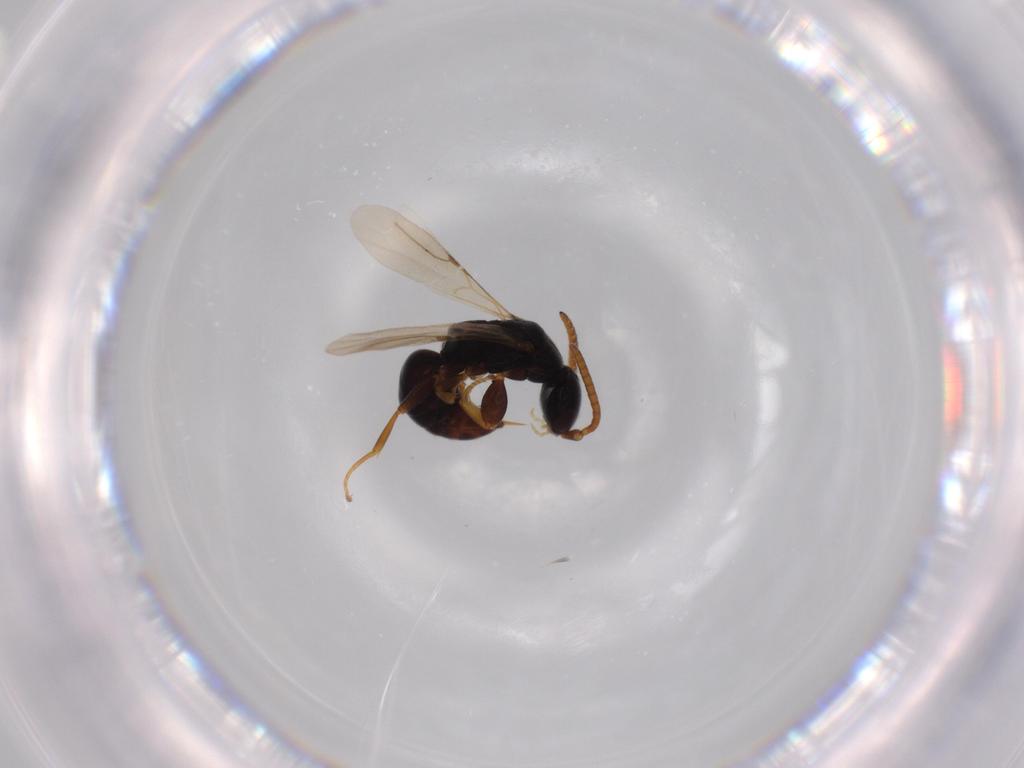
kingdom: Animalia
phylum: Arthropoda
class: Insecta
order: Hymenoptera
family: Bethylidae
